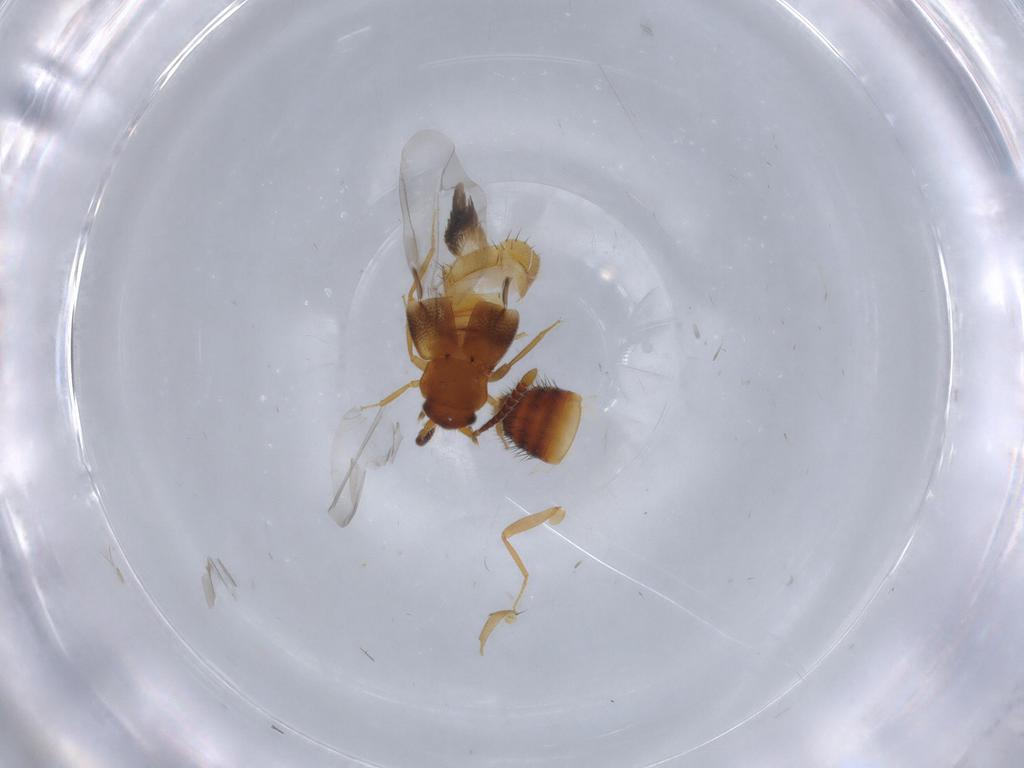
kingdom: Animalia
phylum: Arthropoda
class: Insecta
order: Coleoptera
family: Staphylinidae
